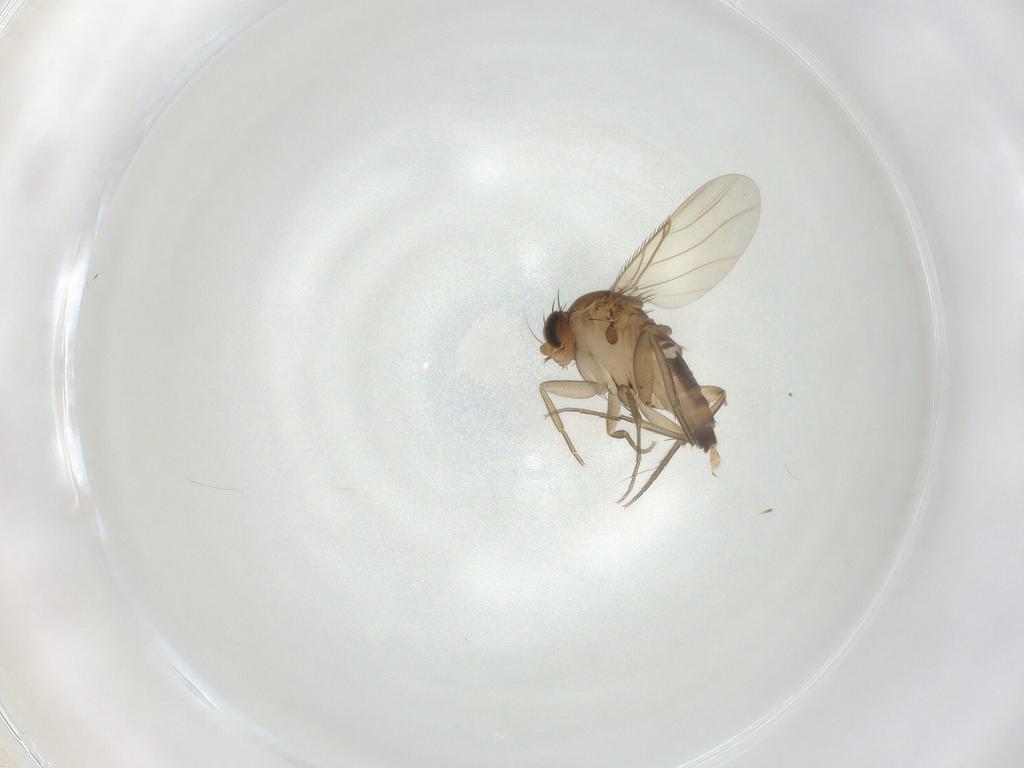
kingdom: Animalia
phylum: Arthropoda
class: Insecta
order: Diptera
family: Phoridae
